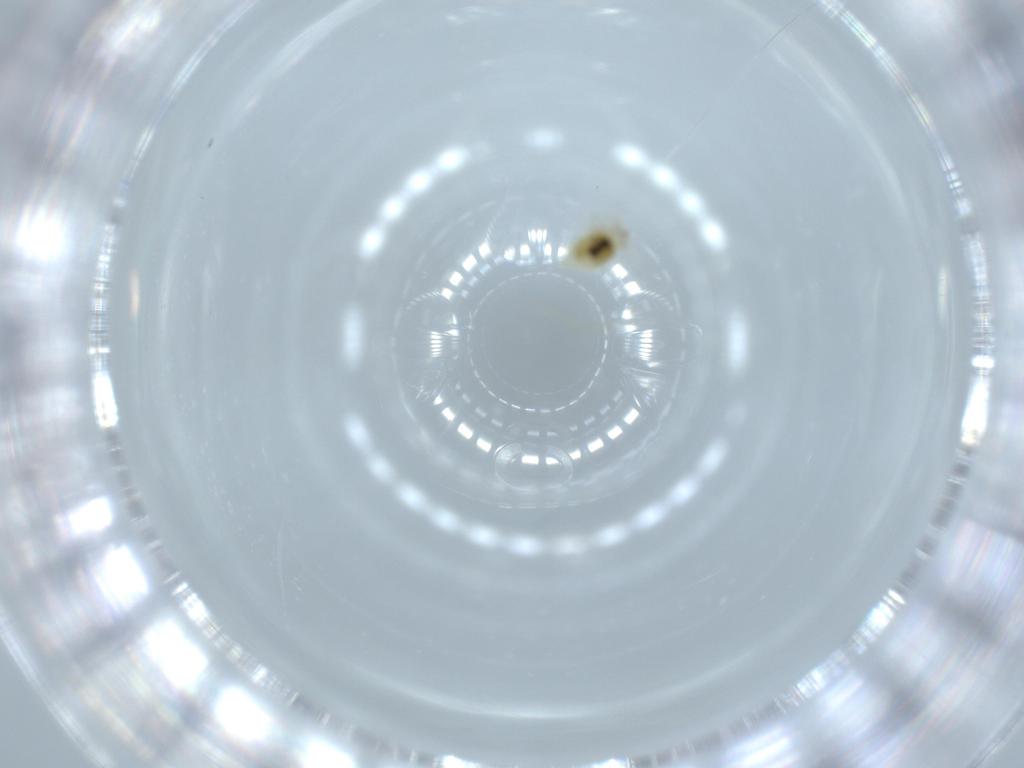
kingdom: Animalia
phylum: Arthropoda
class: Insecta
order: Neuroptera
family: Coniopterygidae
